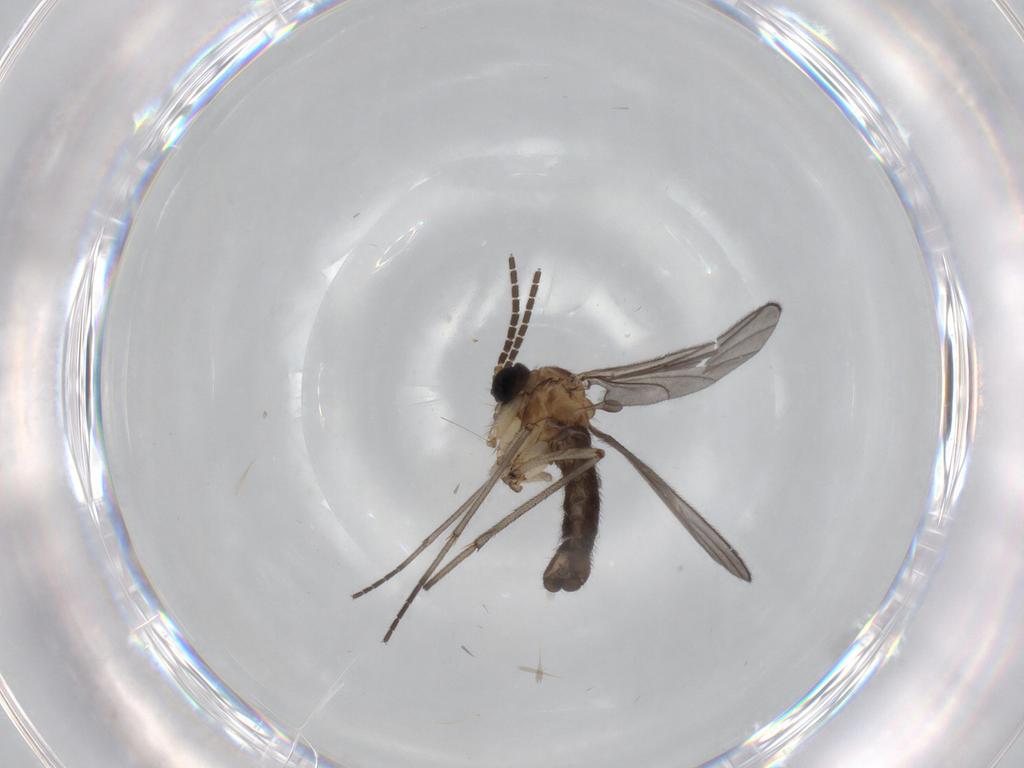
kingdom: Animalia
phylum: Arthropoda
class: Insecta
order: Diptera
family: Sciaridae
